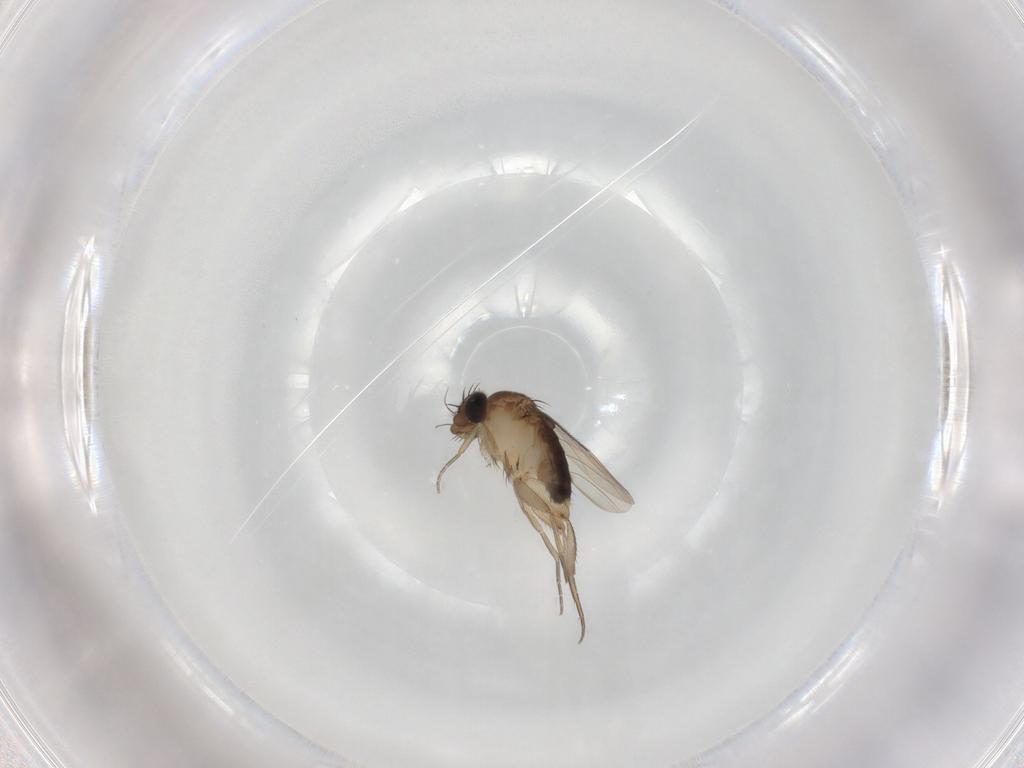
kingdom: Animalia
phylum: Arthropoda
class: Insecta
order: Diptera
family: Phoridae
